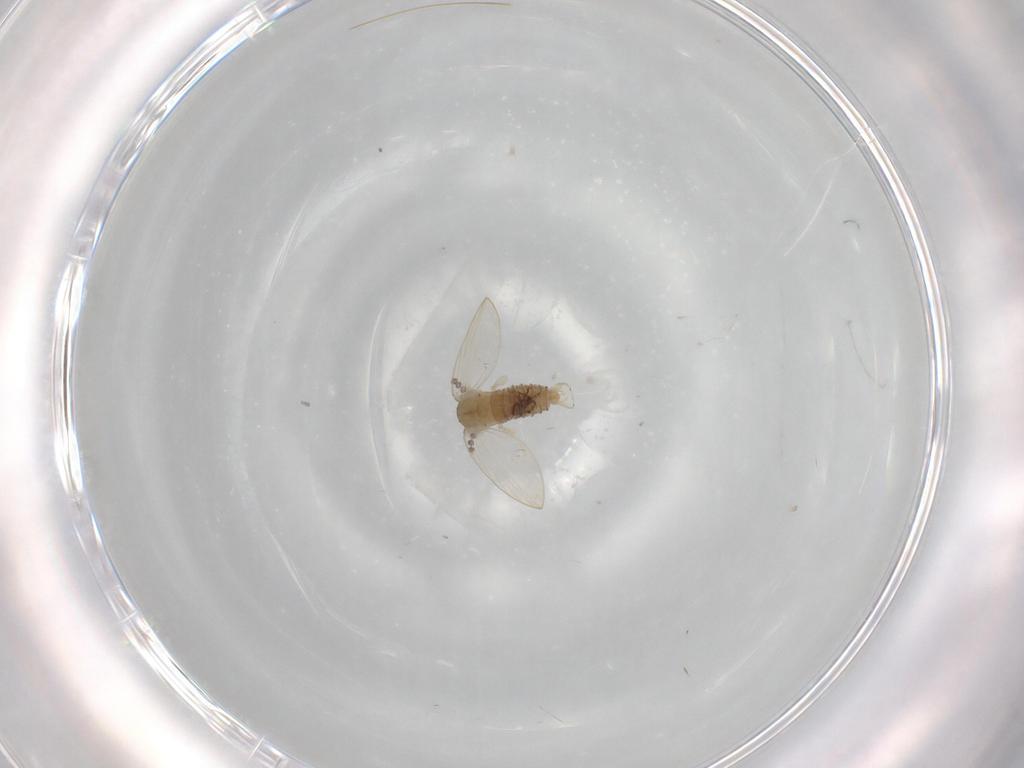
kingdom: Animalia
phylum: Arthropoda
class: Insecta
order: Diptera
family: Psychodidae
